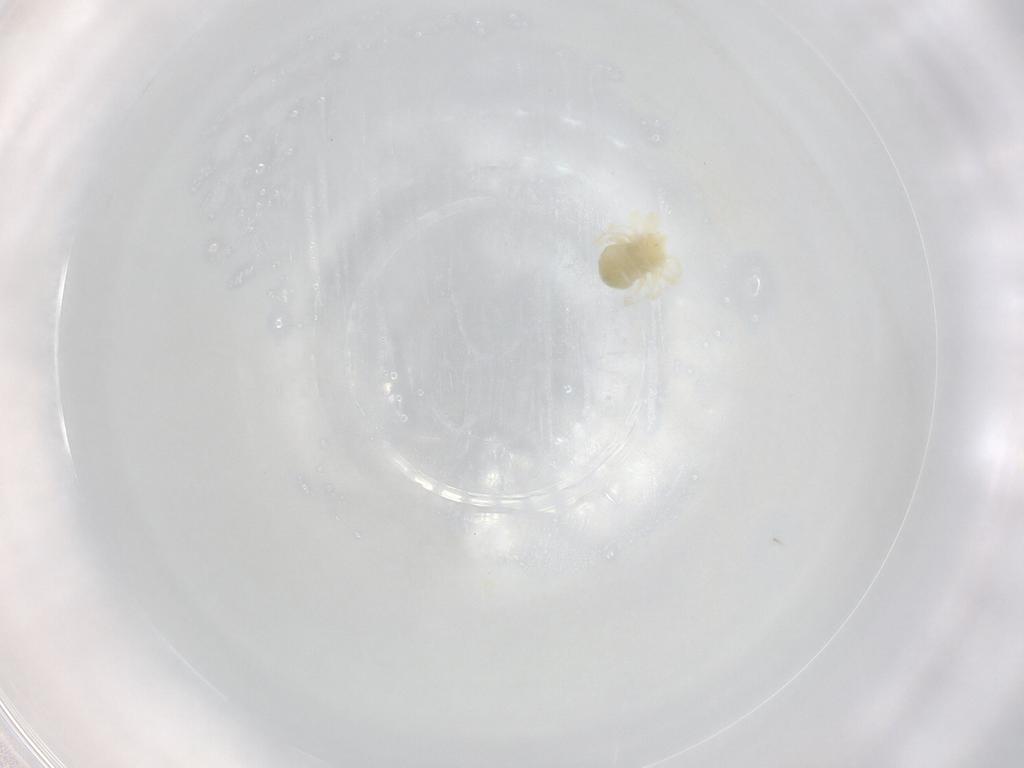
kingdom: Animalia
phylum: Arthropoda
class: Arachnida
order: Trombidiformes
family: Anystidae
